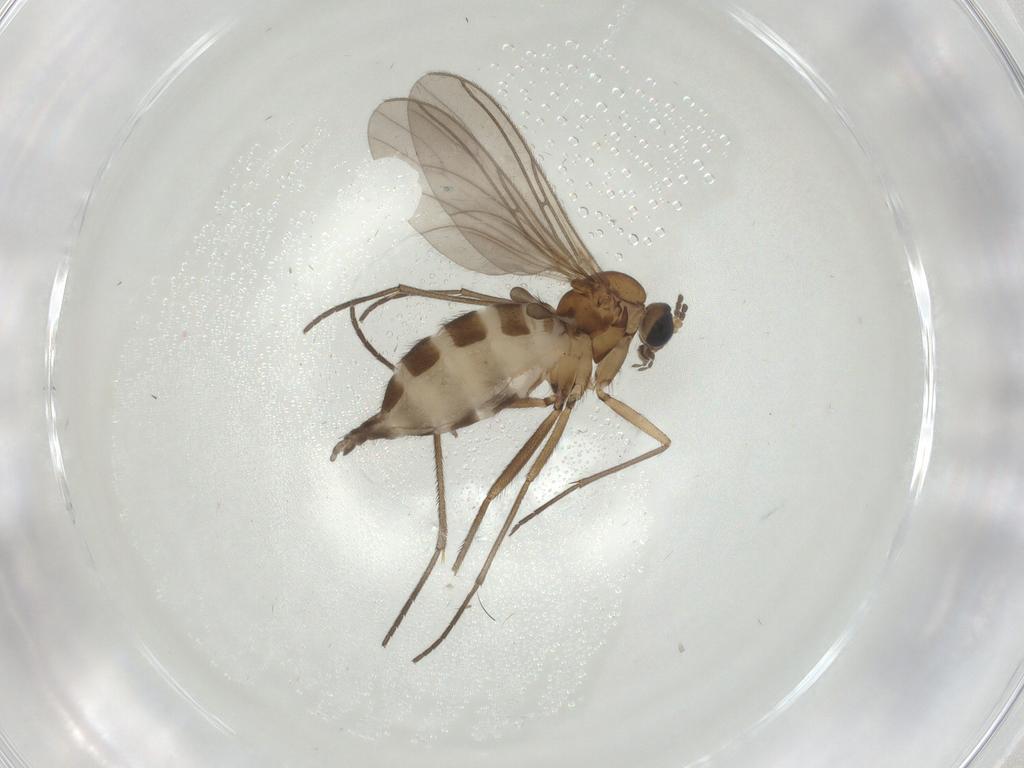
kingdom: Animalia
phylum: Arthropoda
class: Insecta
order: Diptera
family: Sciaridae
